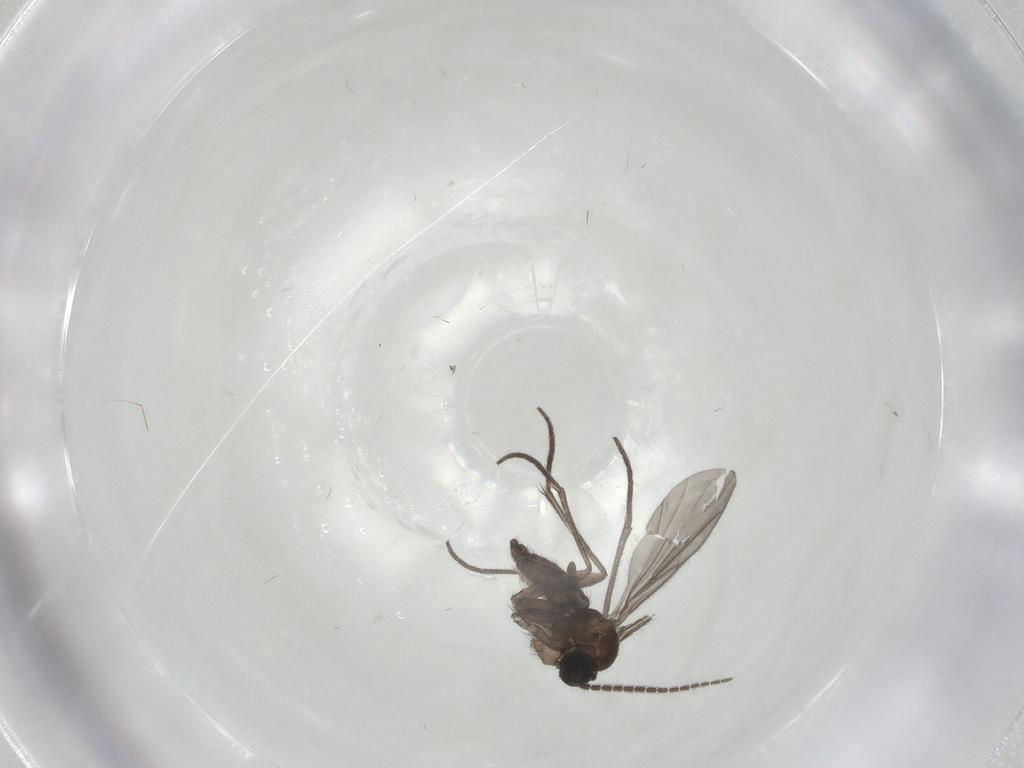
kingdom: Animalia
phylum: Arthropoda
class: Insecta
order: Diptera
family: Sciaridae
